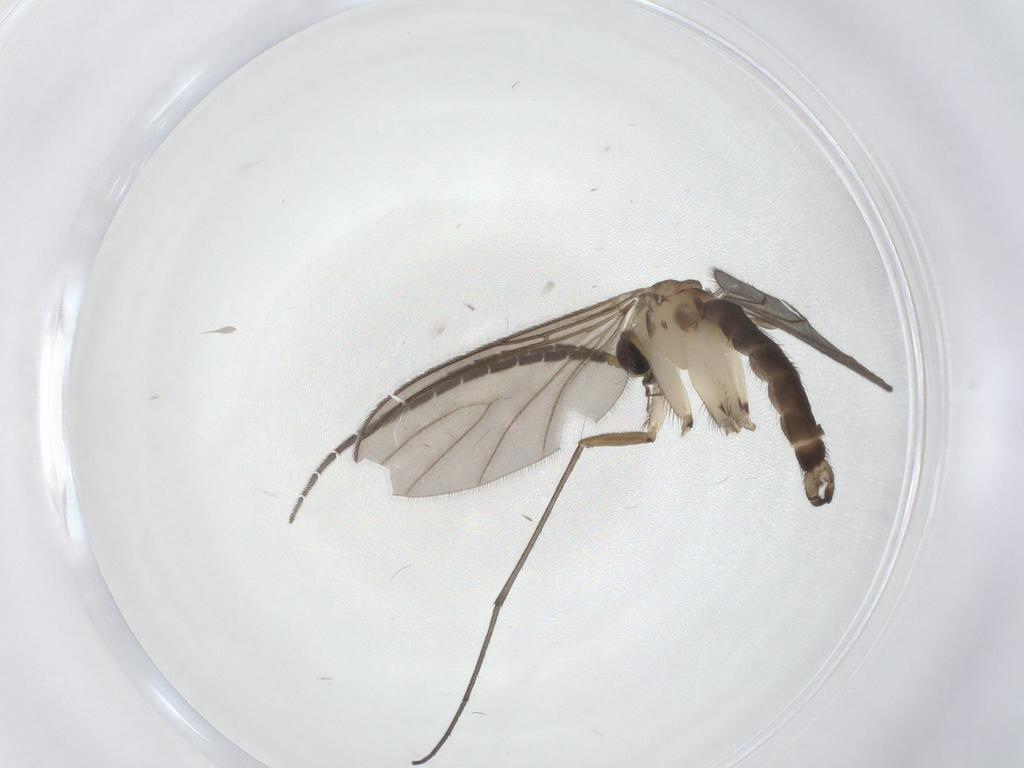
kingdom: Animalia
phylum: Arthropoda
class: Insecta
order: Diptera
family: Sciaridae
